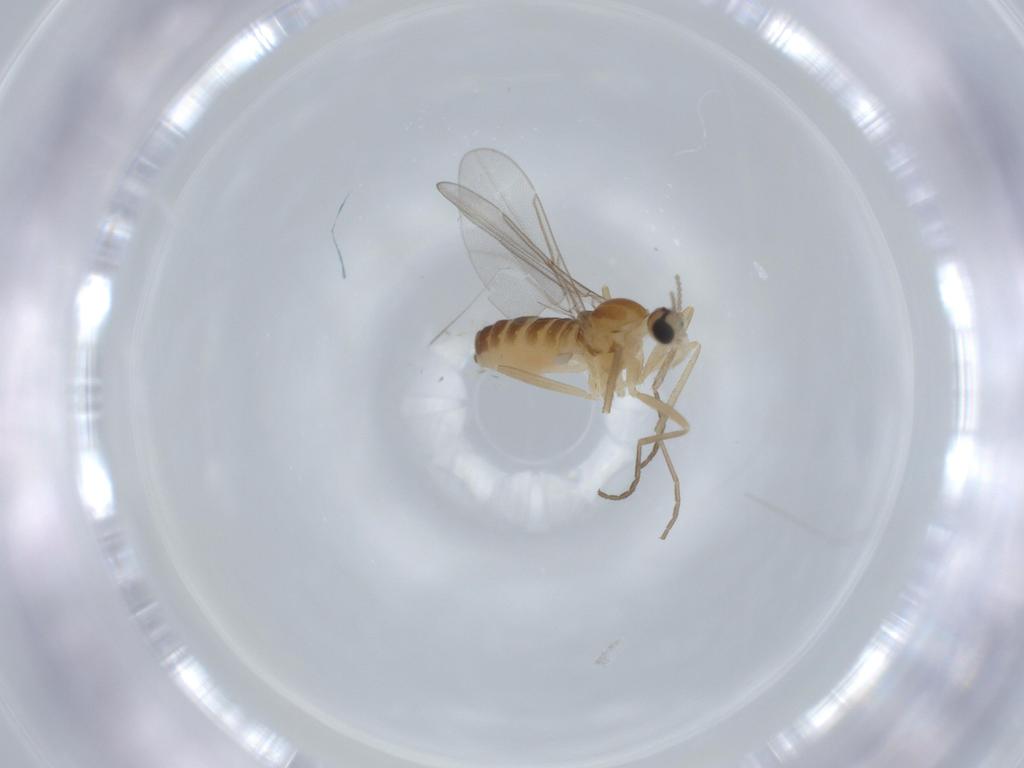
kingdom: Animalia
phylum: Arthropoda
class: Insecta
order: Diptera
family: Cecidomyiidae
